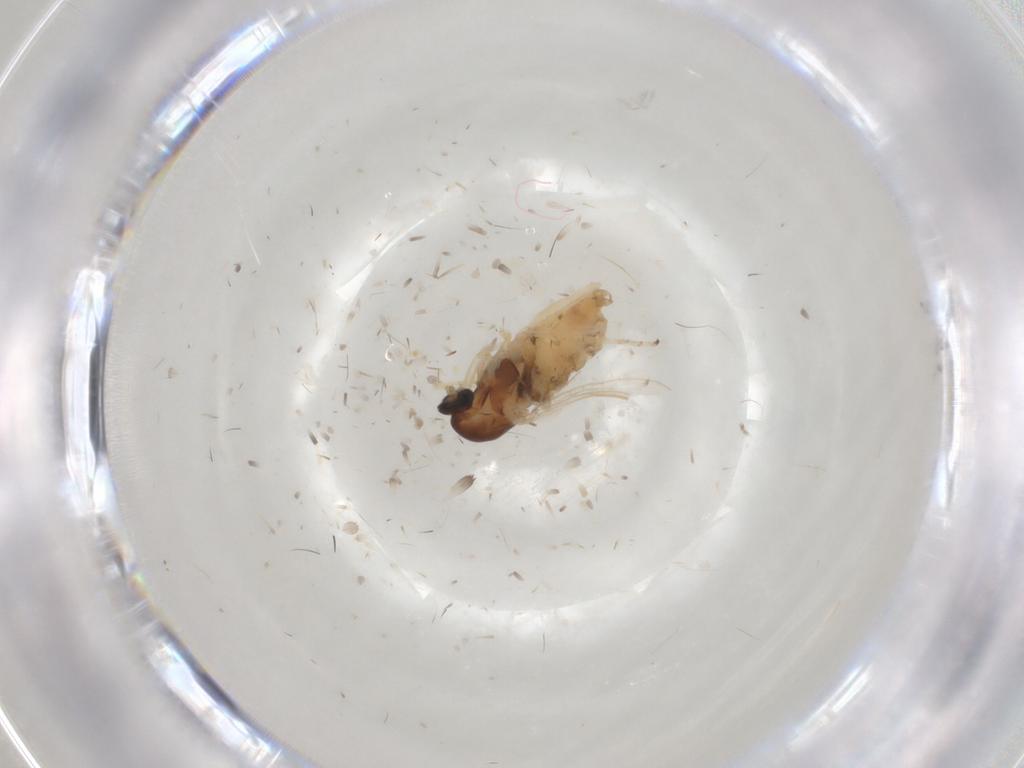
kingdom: Animalia
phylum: Arthropoda
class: Insecta
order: Diptera
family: Cecidomyiidae
